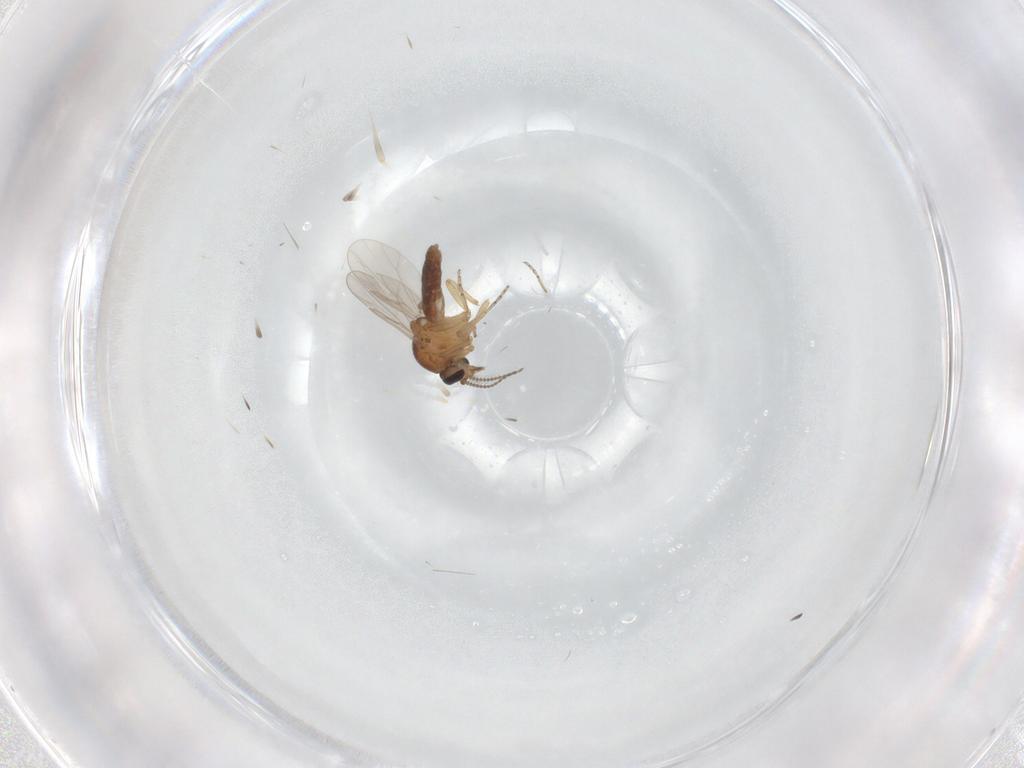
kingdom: Animalia
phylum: Arthropoda
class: Insecta
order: Diptera
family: Ceratopogonidae
